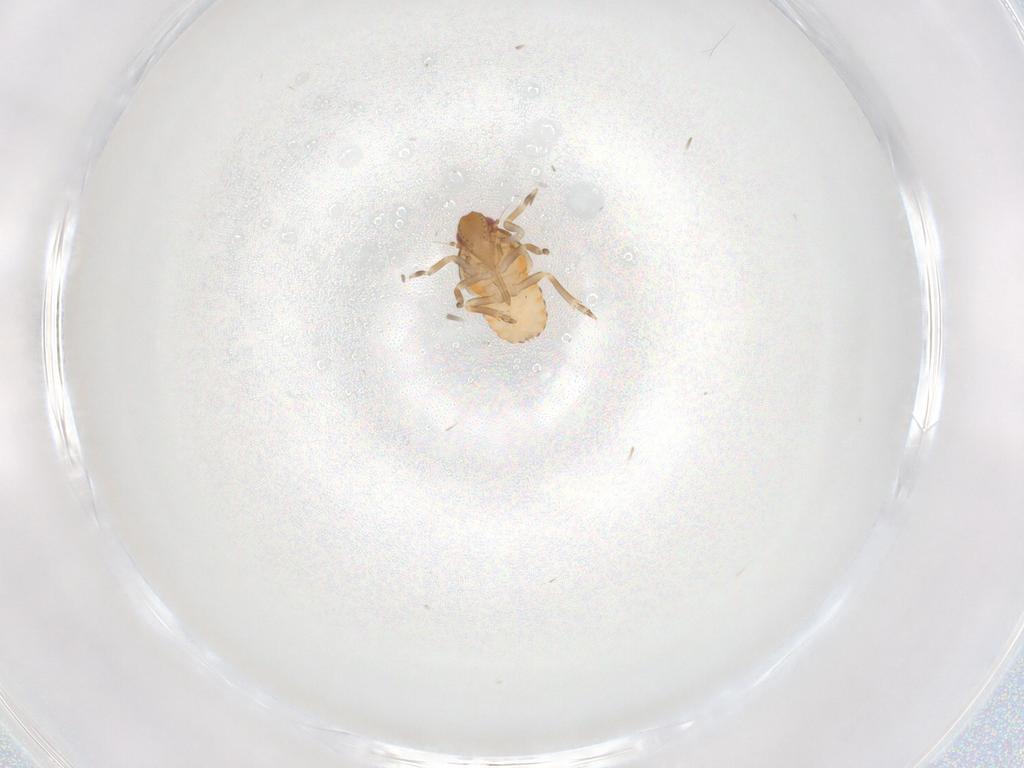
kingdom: Animalia
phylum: Arthropoda
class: Insecta
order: Hemiptera
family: Flatidae
